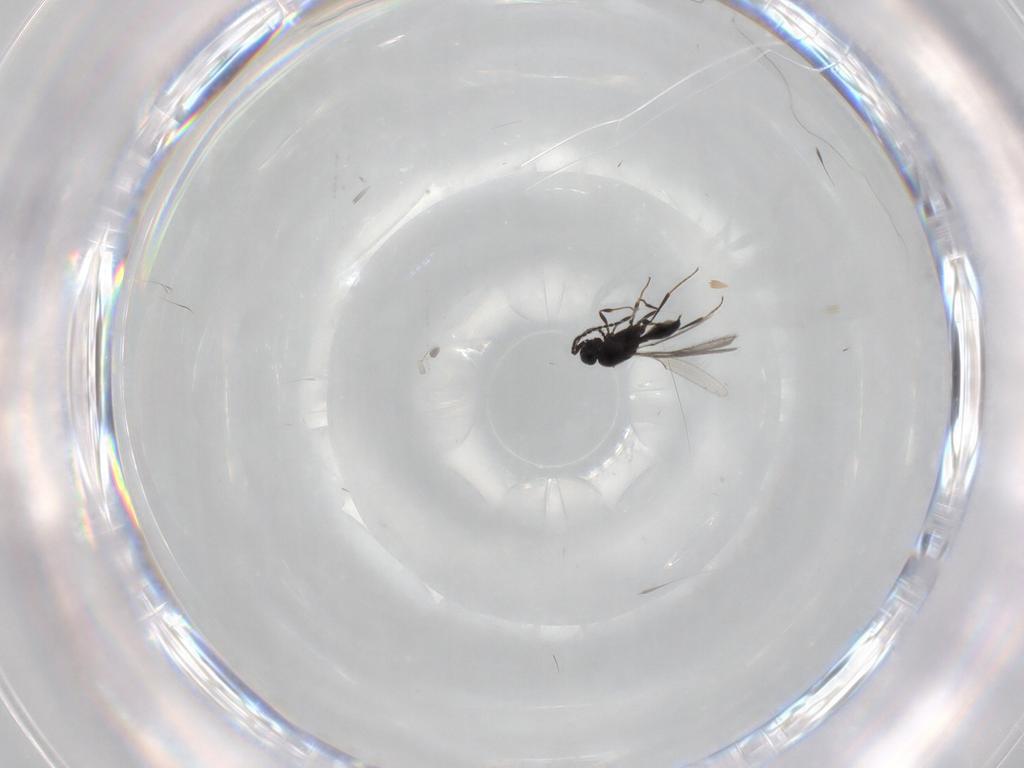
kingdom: Animalia
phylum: Arthropoda
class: Insecta
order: Hymenoptera
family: Scelionidae
